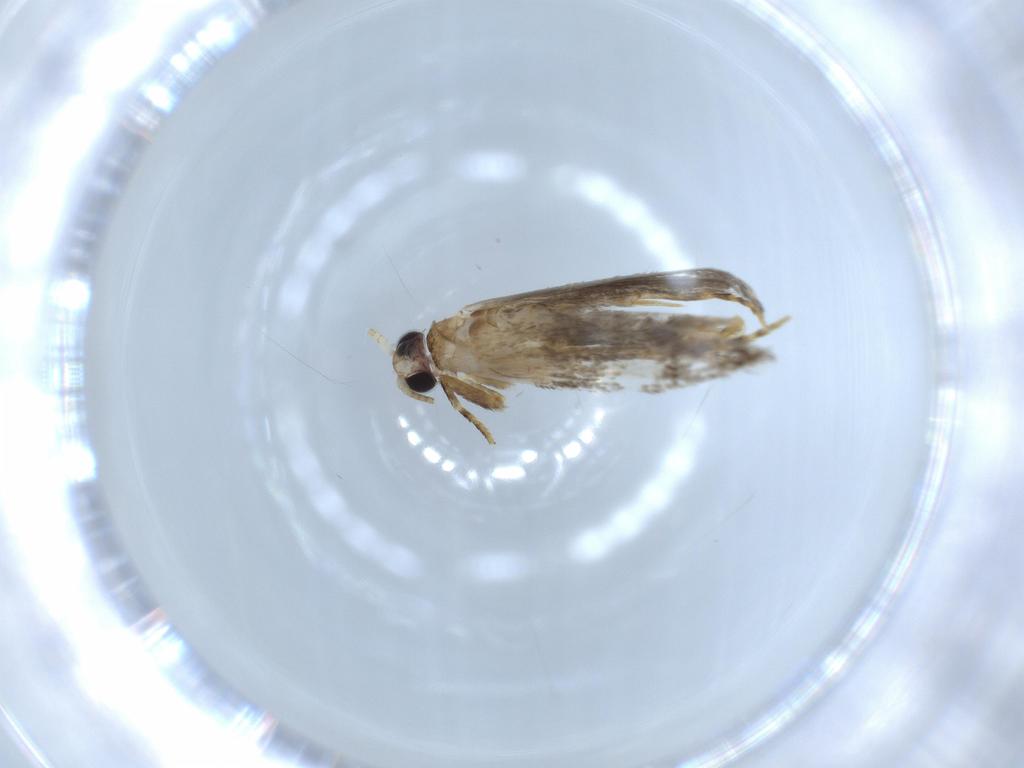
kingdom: Animalia
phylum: Arthropoda
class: Insecta
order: Lepidoptera
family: Tineidae
